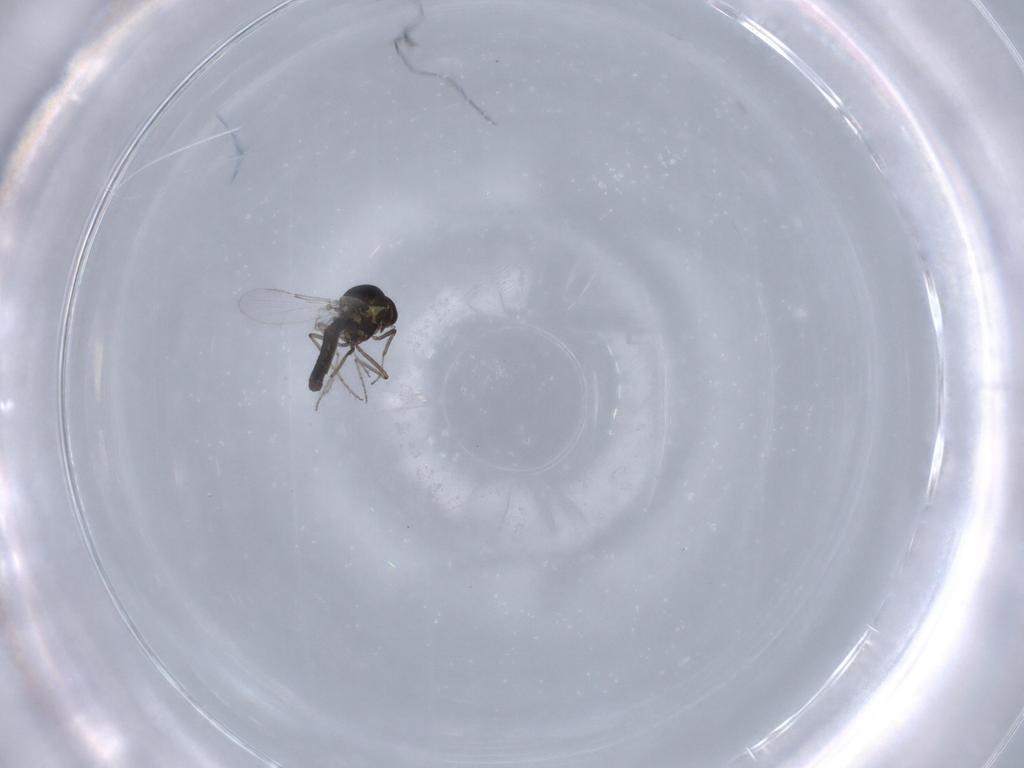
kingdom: Animalia
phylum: Arthropoda
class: Insecta
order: Diptera
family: Ceratopogonidae
